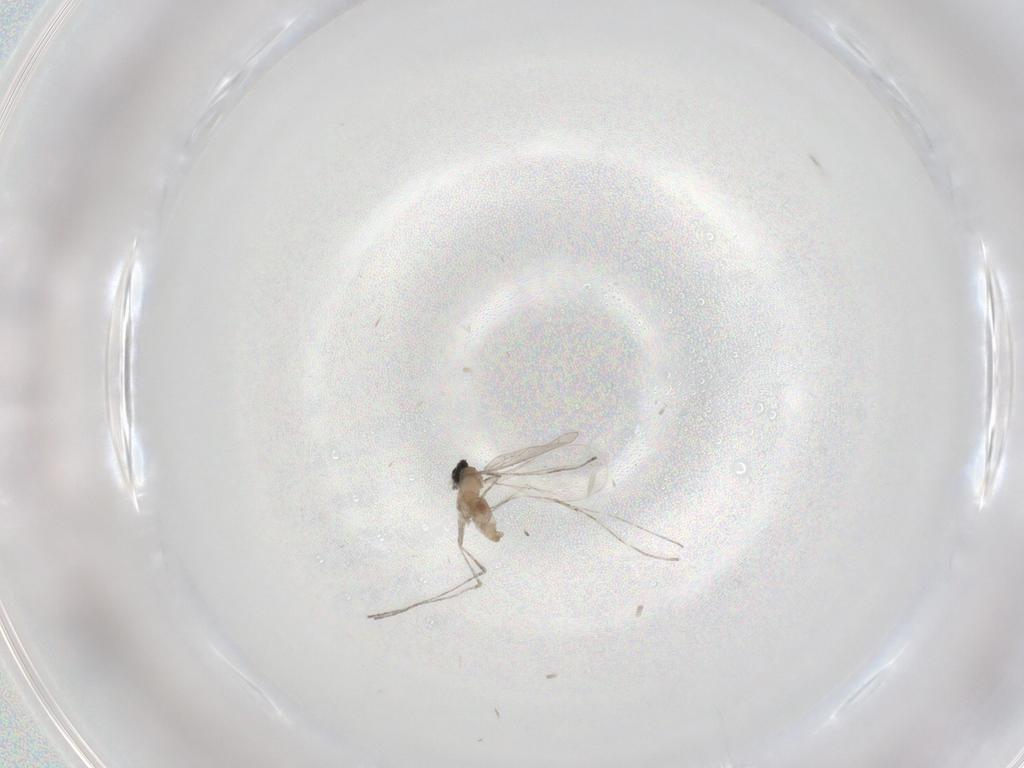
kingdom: Animalia
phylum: Arthropoda
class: Insecta
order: Diptera
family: Cecidomyiidae
